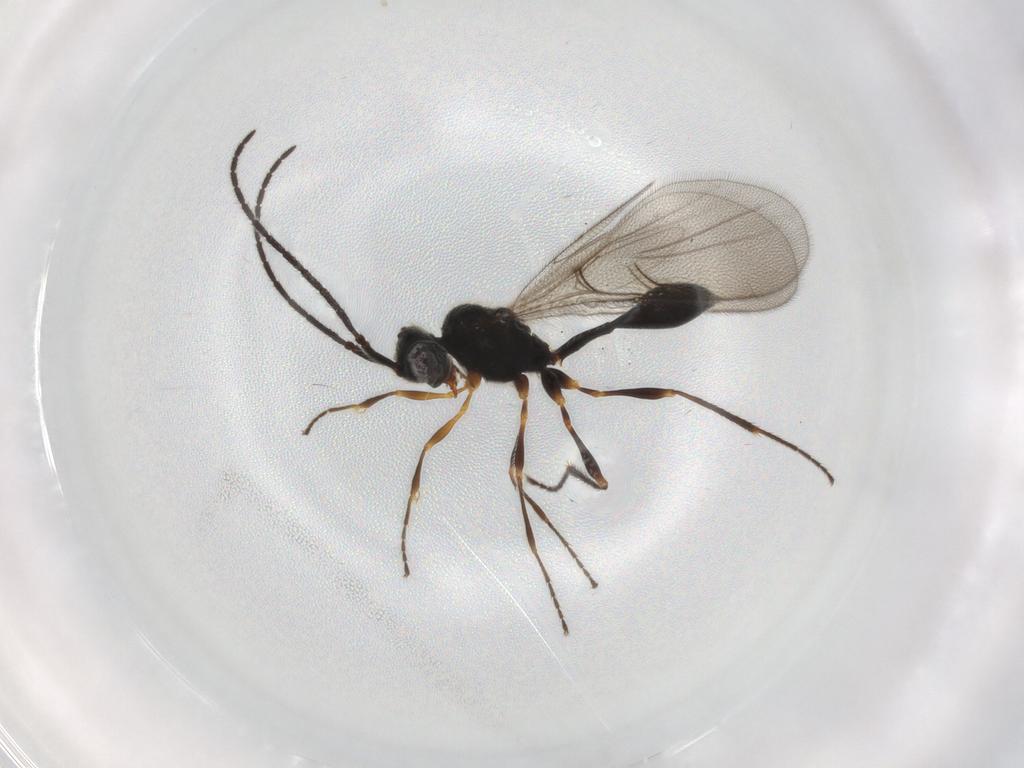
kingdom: Animalia
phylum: Arthropoda
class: Insecta
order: Hymenoptera
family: Figitidae
